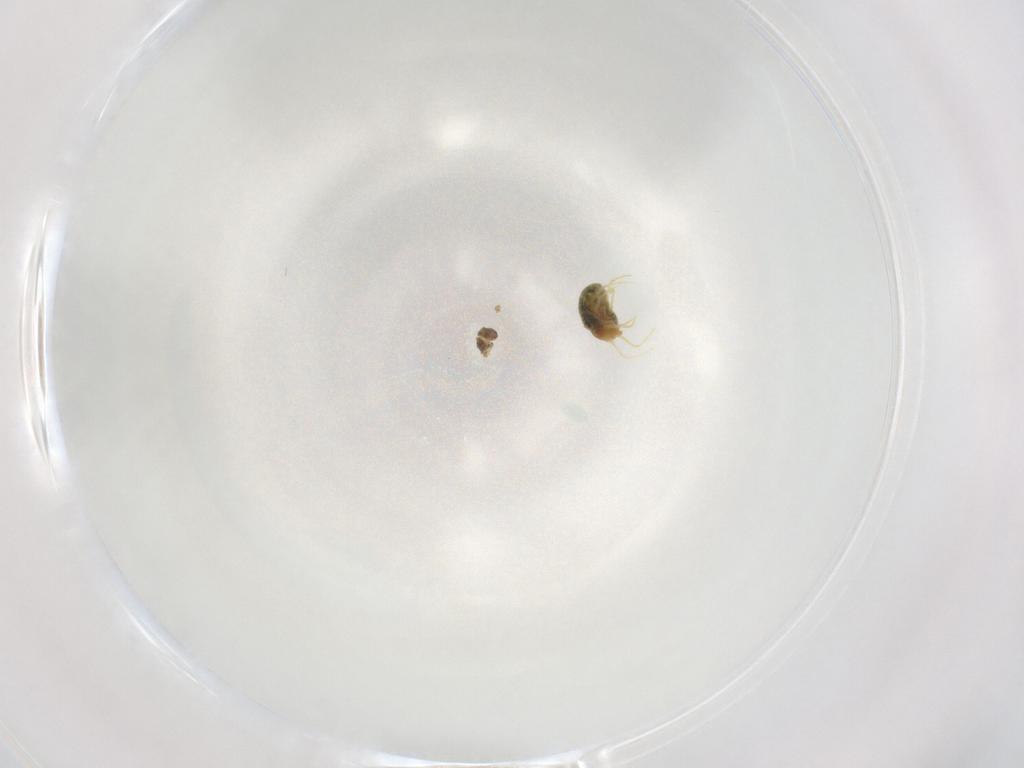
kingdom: Animalia
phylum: Arthropoda
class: Arachnida
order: Trombidiformes
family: Tetranychidae
